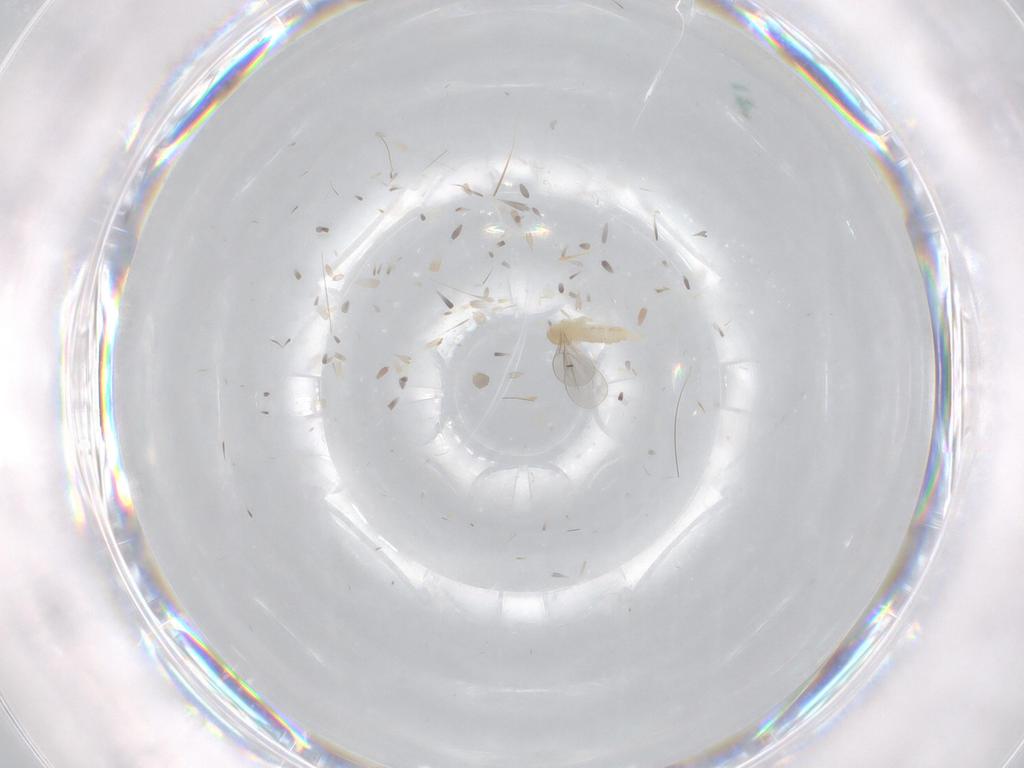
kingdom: Animalia
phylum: Arthropoda
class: Insecta
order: Diptera
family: Cecidomyiidae
